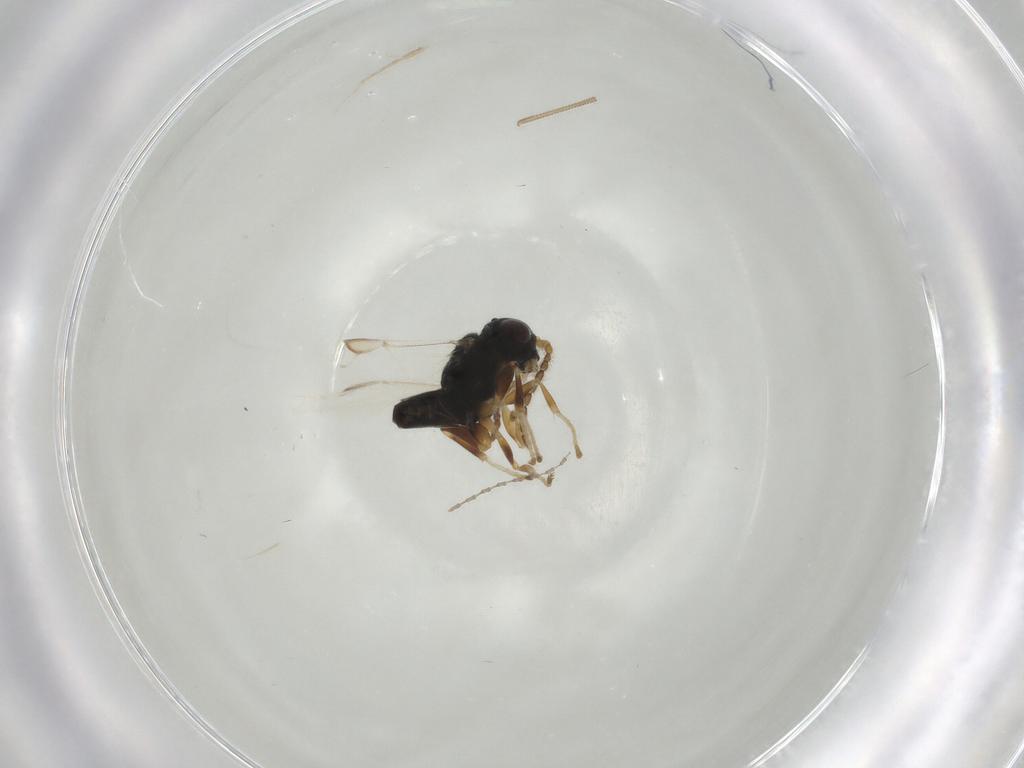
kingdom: Animalia
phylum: Arthropoda
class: Insecta
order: Hymenoptera
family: Dryinidae
